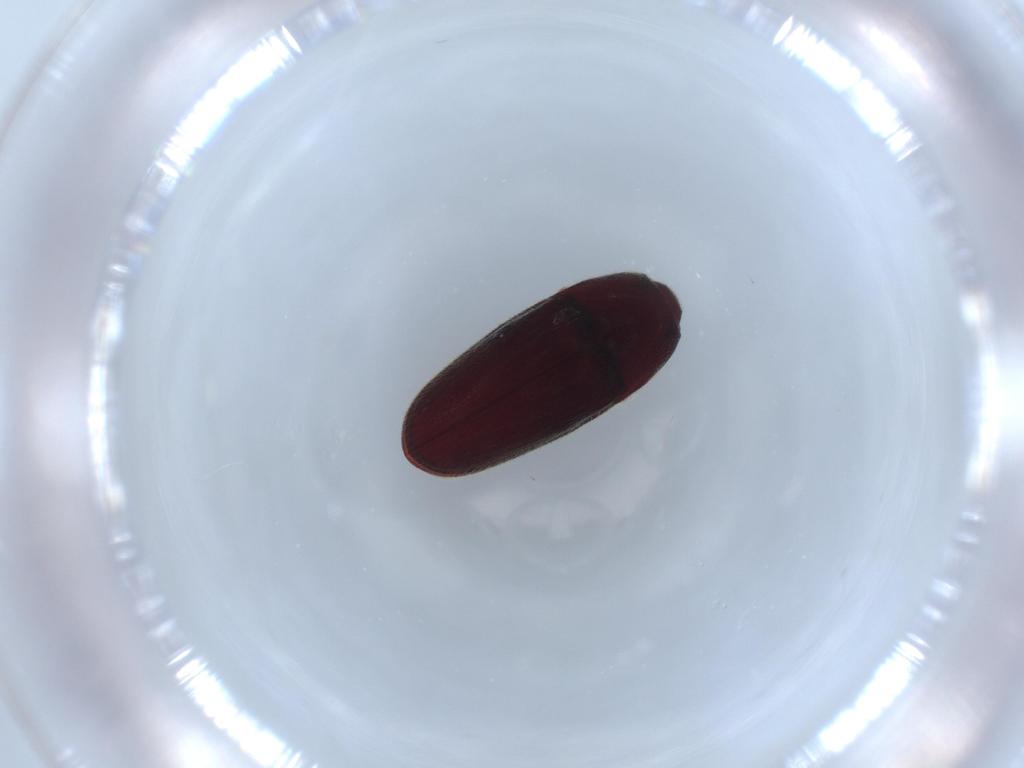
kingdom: Animalia
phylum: Arthropoda
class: Insecta
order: Coleoptera
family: Throscidae
